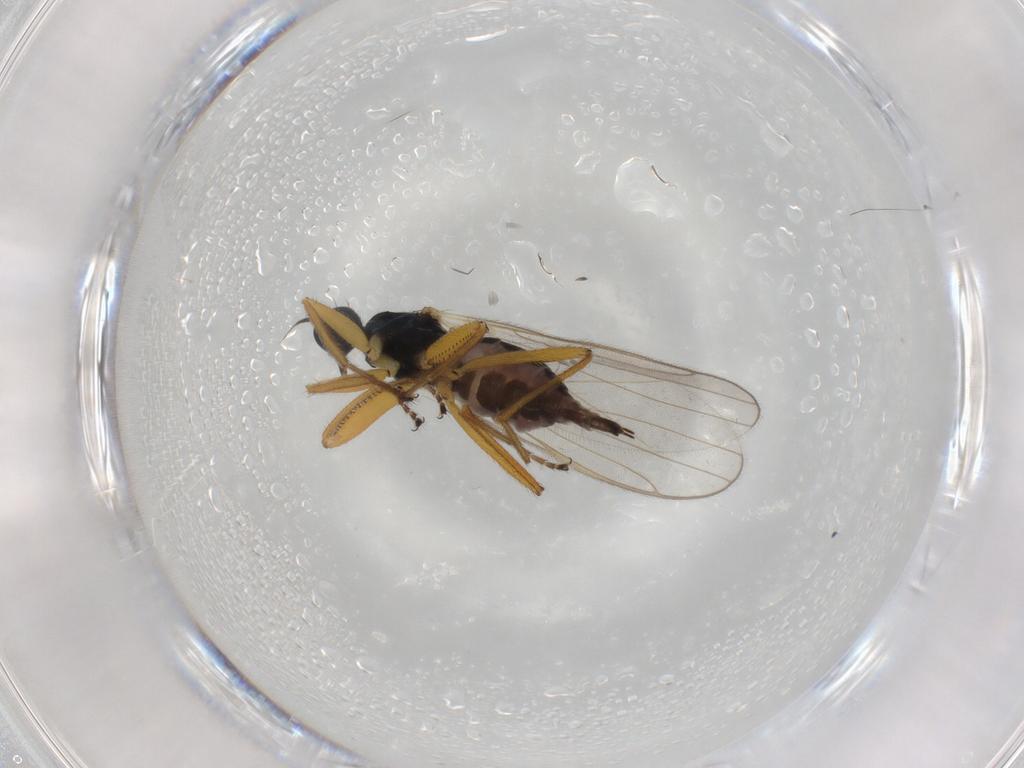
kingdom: Animalia
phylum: Arthropoda
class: Insecta
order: Diptera
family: Hybotidae
